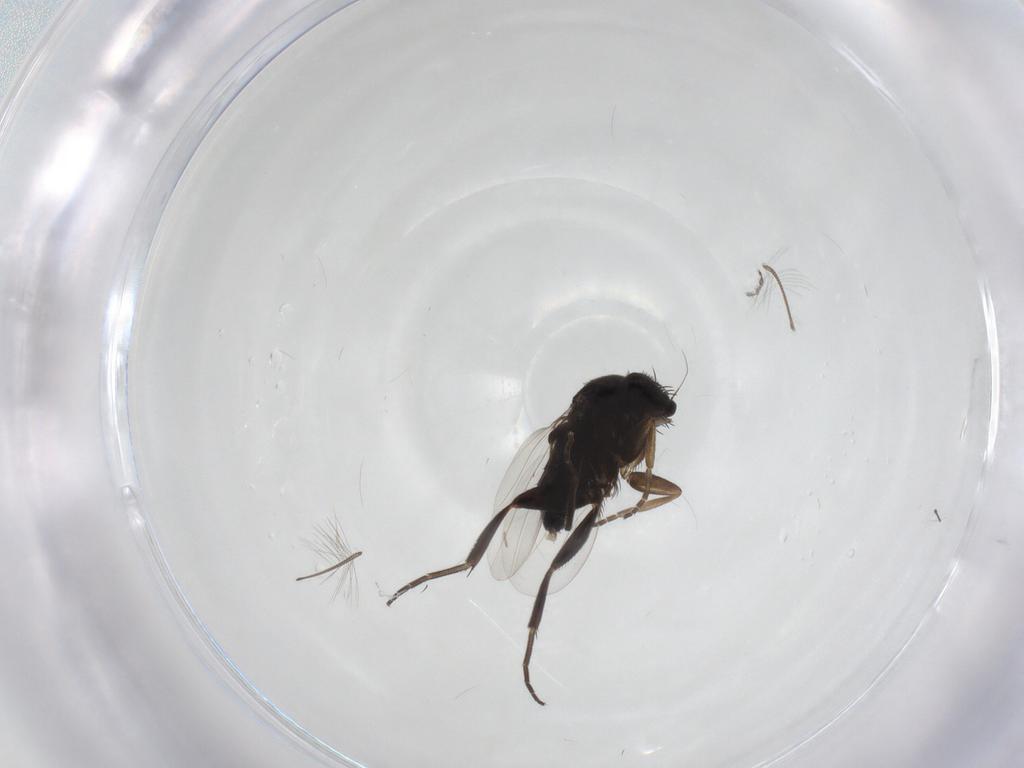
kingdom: Animalia
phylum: Arthropoda
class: Insecta
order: Diptera
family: Phoridae
